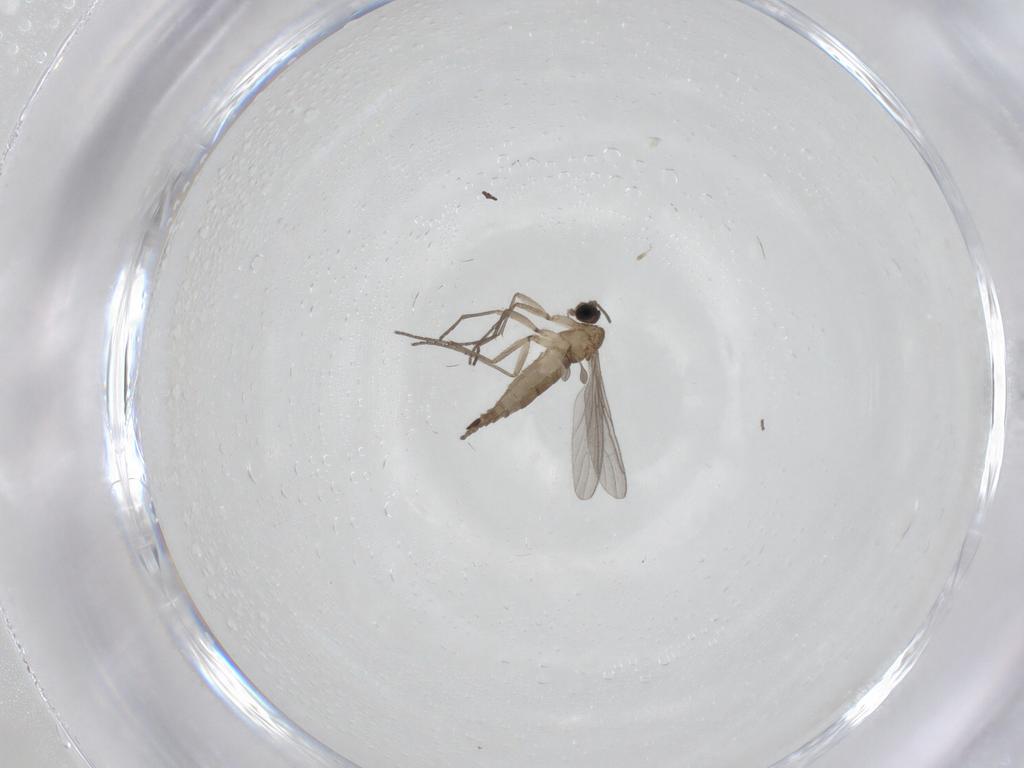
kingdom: Animalia
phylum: Arthropoda
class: Insecta
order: Diptera
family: Sciaridae
